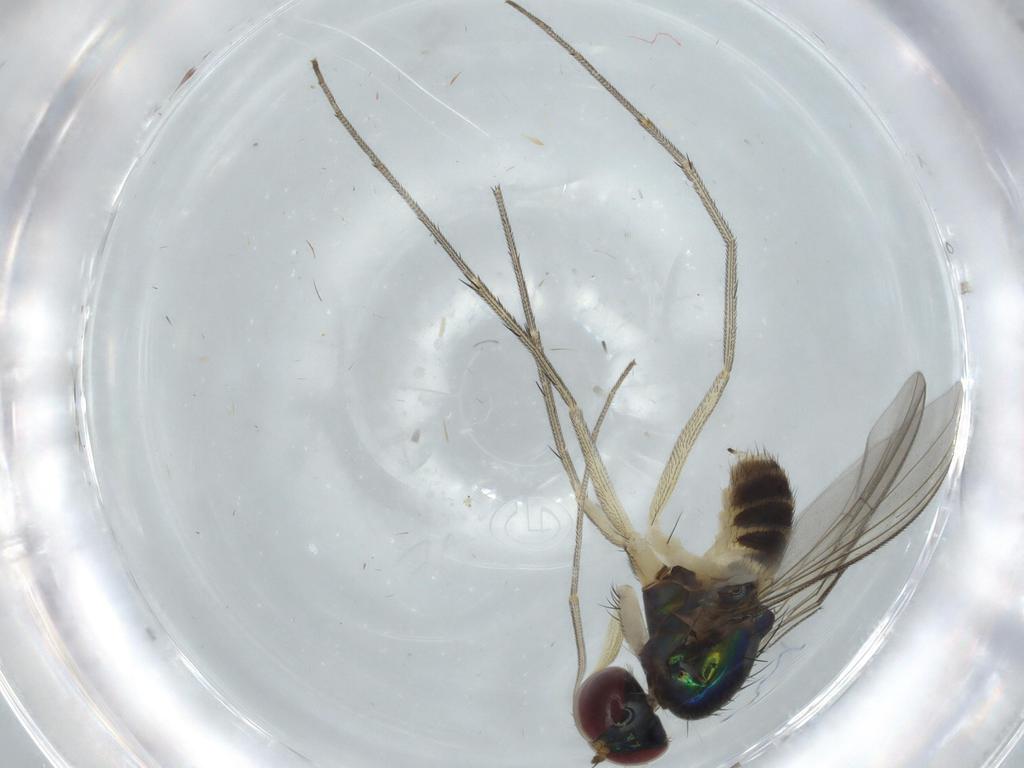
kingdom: Animalia
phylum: Arthropoda
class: Insecta
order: Diptera
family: Dolichopodidae
